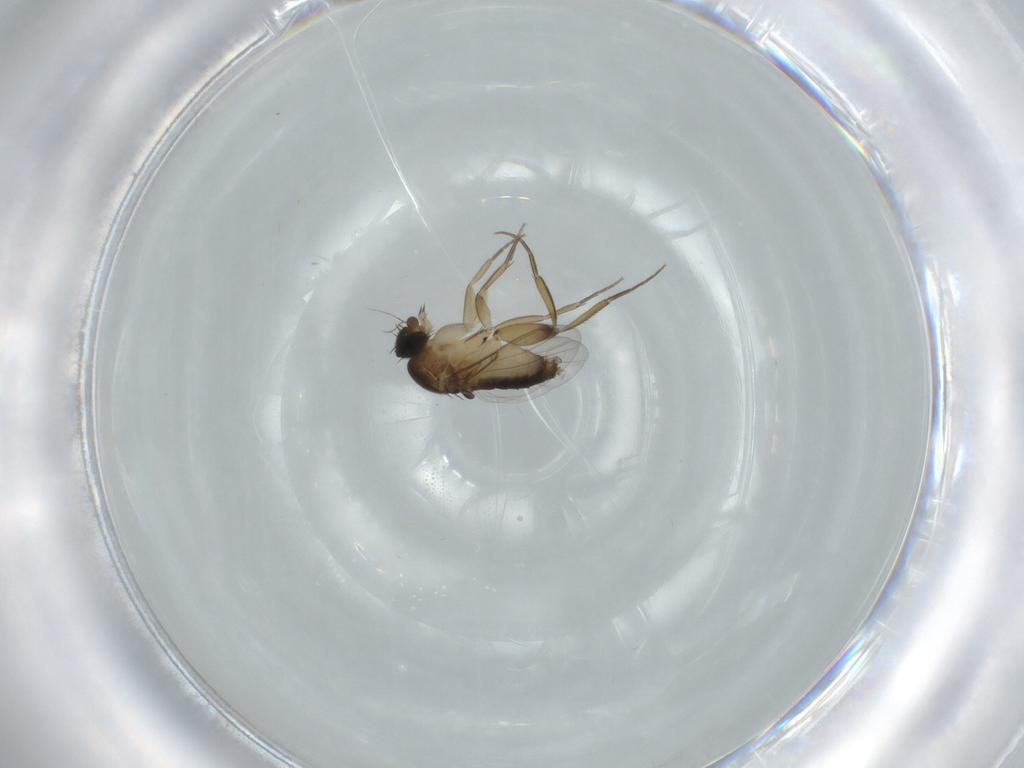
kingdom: Animalia
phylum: Arthropoda
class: Insecta
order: Diptera
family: Phoridae
